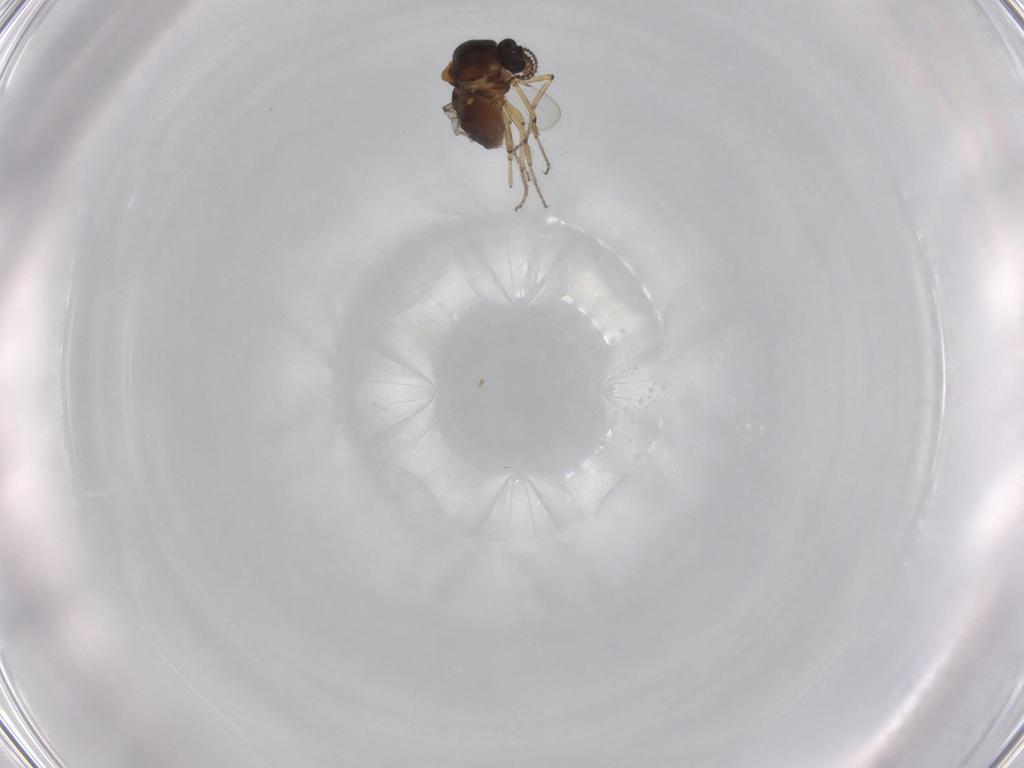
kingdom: Animalia
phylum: Arthropoda
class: Insecta
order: Diptera
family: Ceratopogonidae
